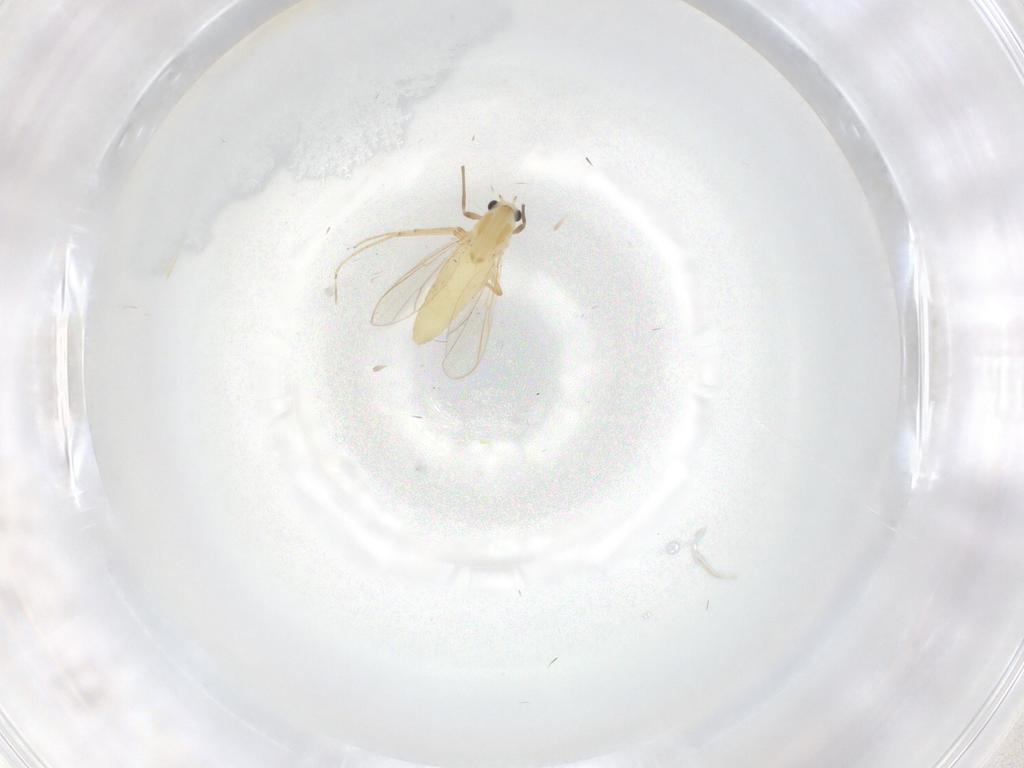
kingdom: Animalia
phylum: Arthropoda
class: Insecta
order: Diptera
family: Chironomidae
